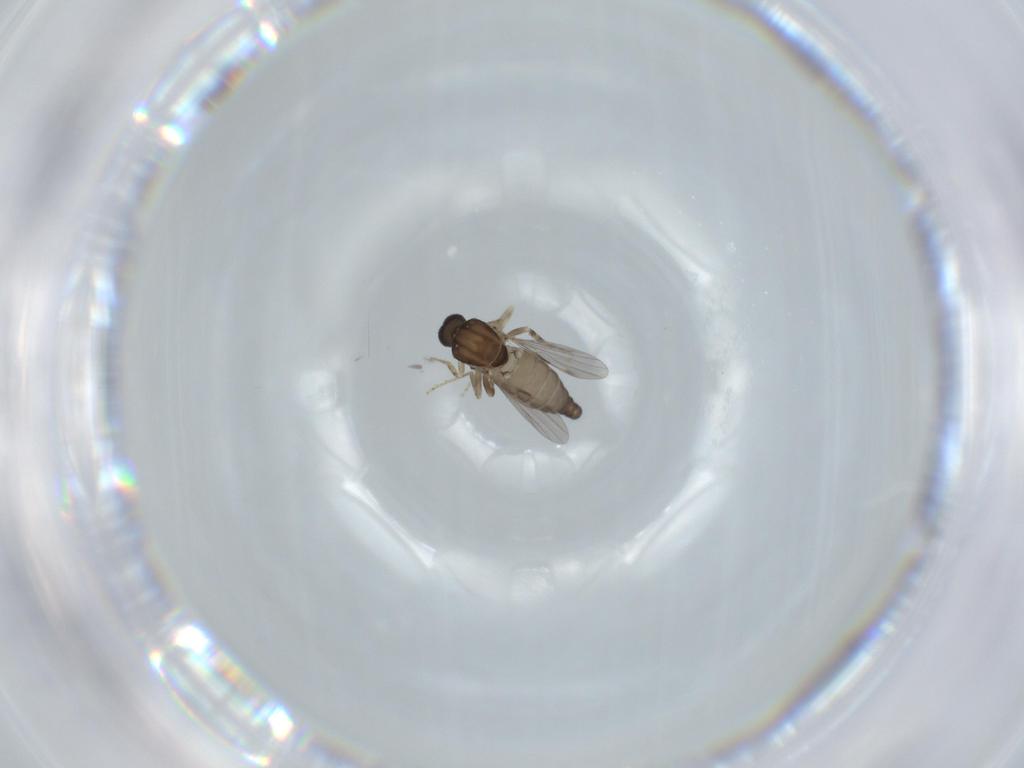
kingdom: Animalia
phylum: Arthropoda
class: Insecta
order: Diptera
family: Ceratopogonidae
